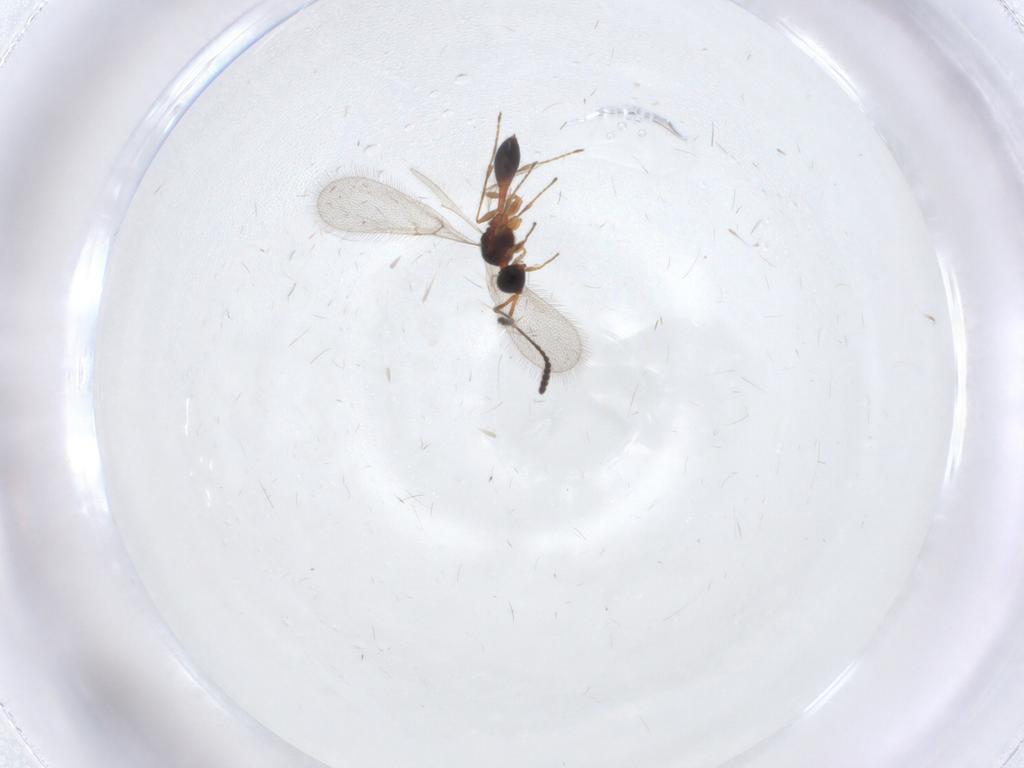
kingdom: Animalia
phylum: Arthropoda
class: Insecta
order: Hymenoptera
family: Diapriidae
